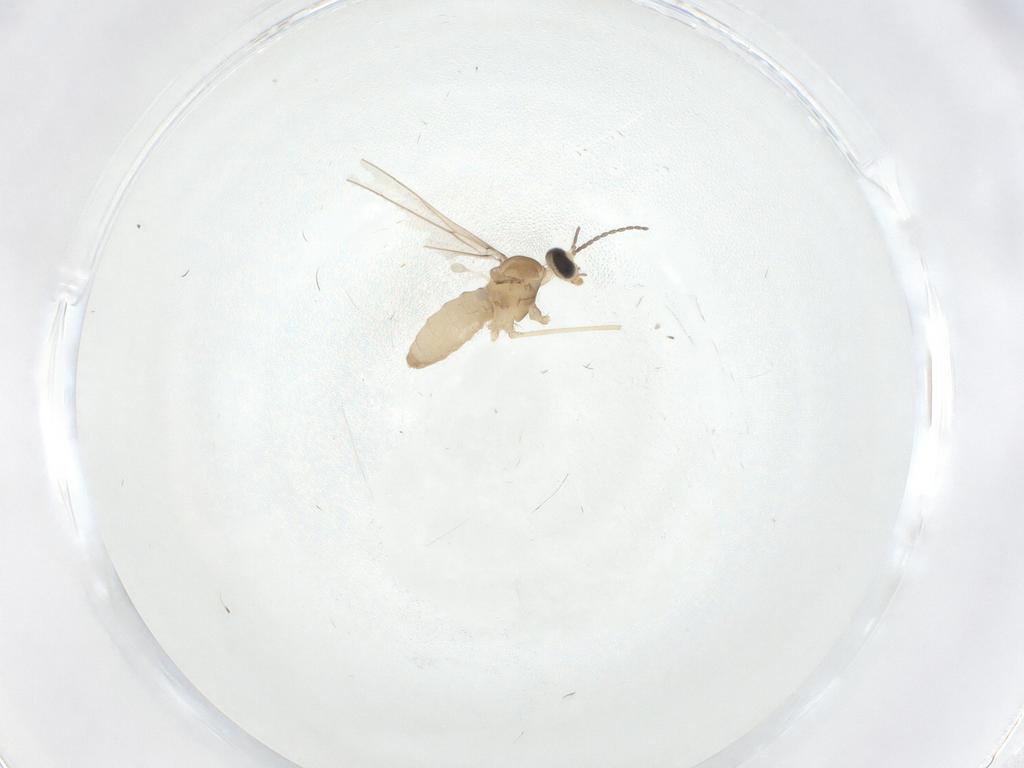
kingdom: Animalia
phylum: Arthropoda
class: Insecta
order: Diptera
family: Cecidomyiidae
